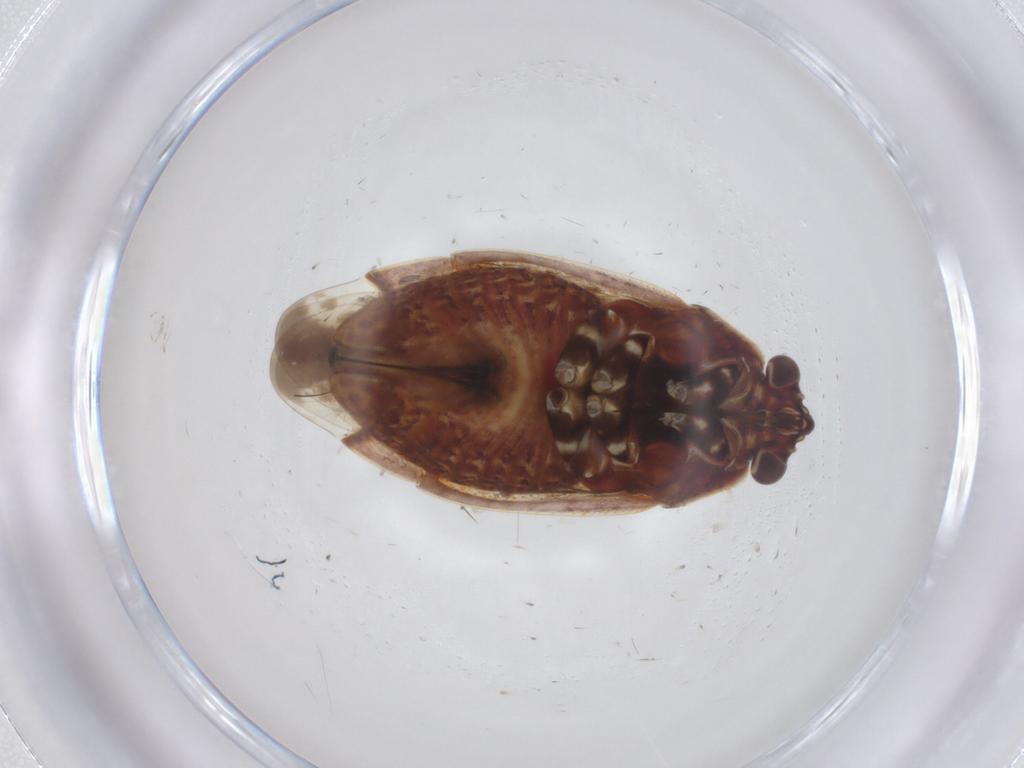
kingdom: Animalia
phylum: Arthropoda
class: Insecta
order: Hemiptera
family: Miridae
